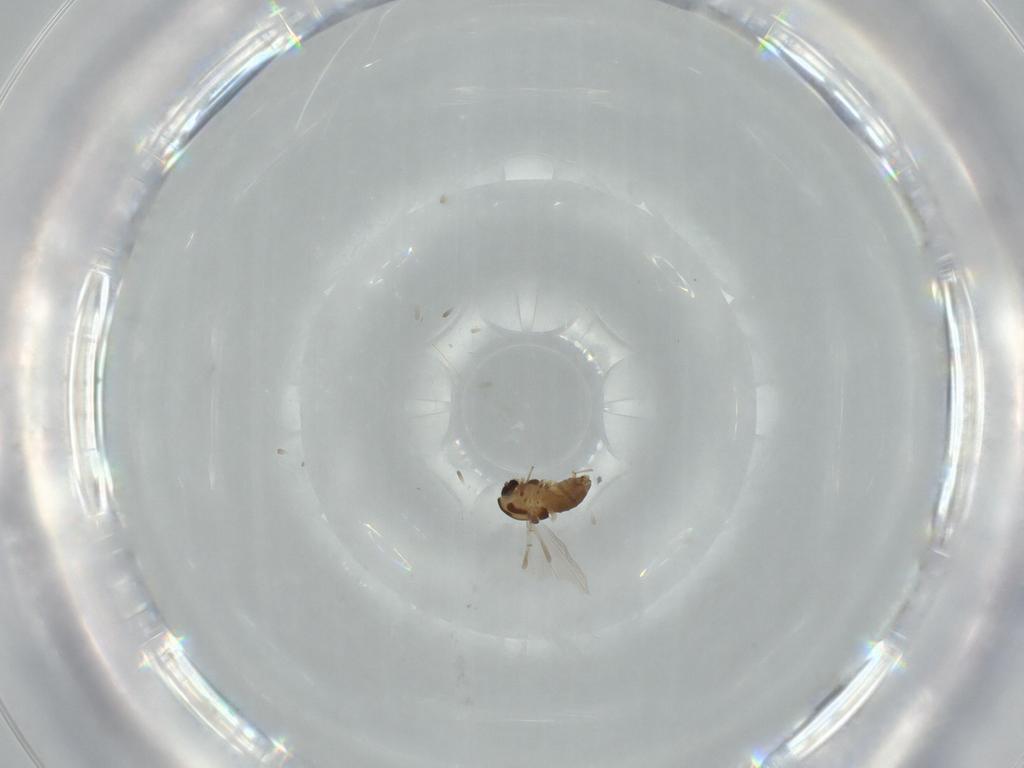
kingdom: Animalia
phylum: Arthropoda
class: Insecta
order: Diptera
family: Chironomidae
